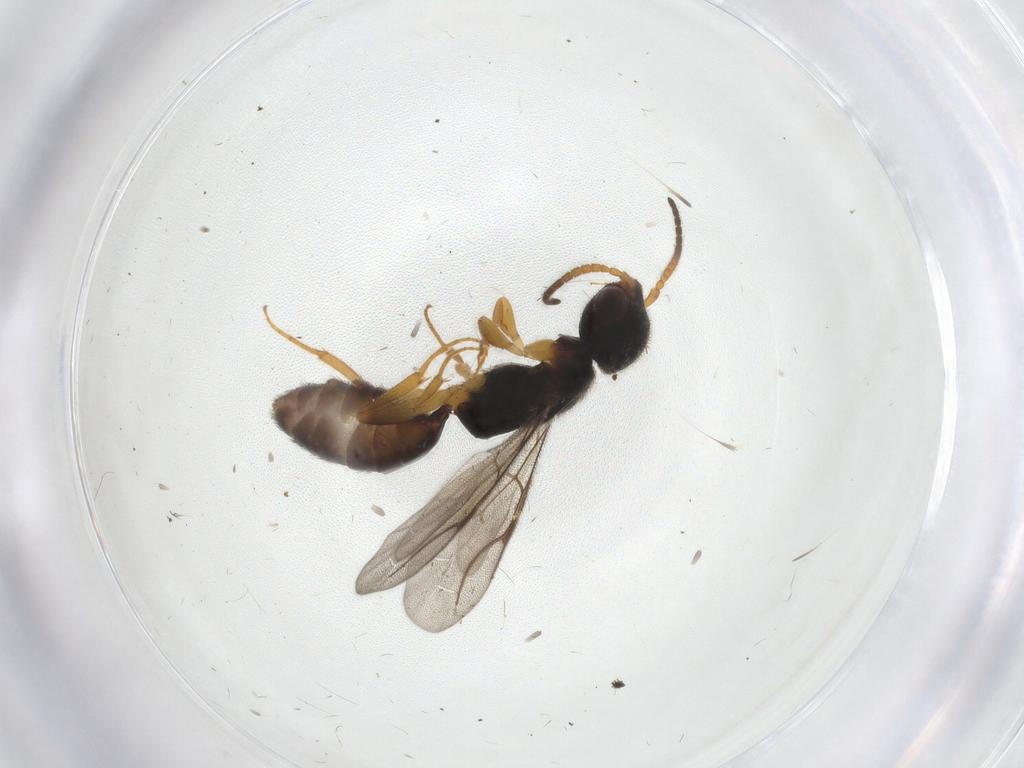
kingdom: Animalia
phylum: Arthropoda
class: Insecta
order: Hymenoptera
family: Bethylidae
